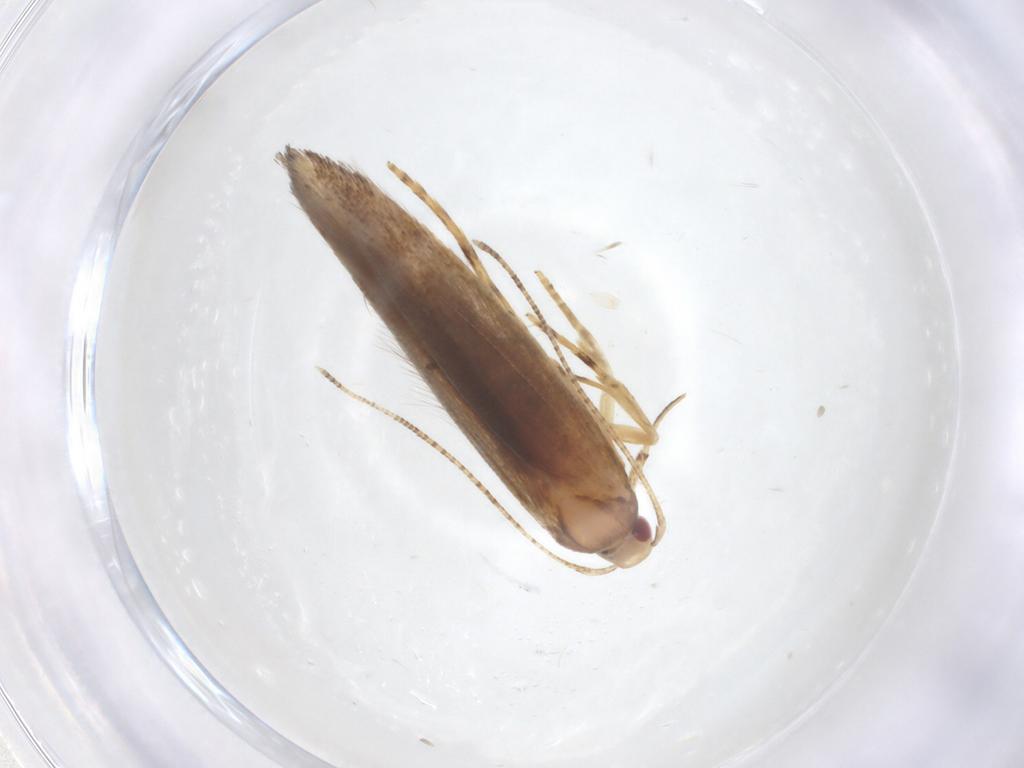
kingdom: Animalia
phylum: Arthropoda
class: Insecta
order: Lepidoptera
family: Erebidae
